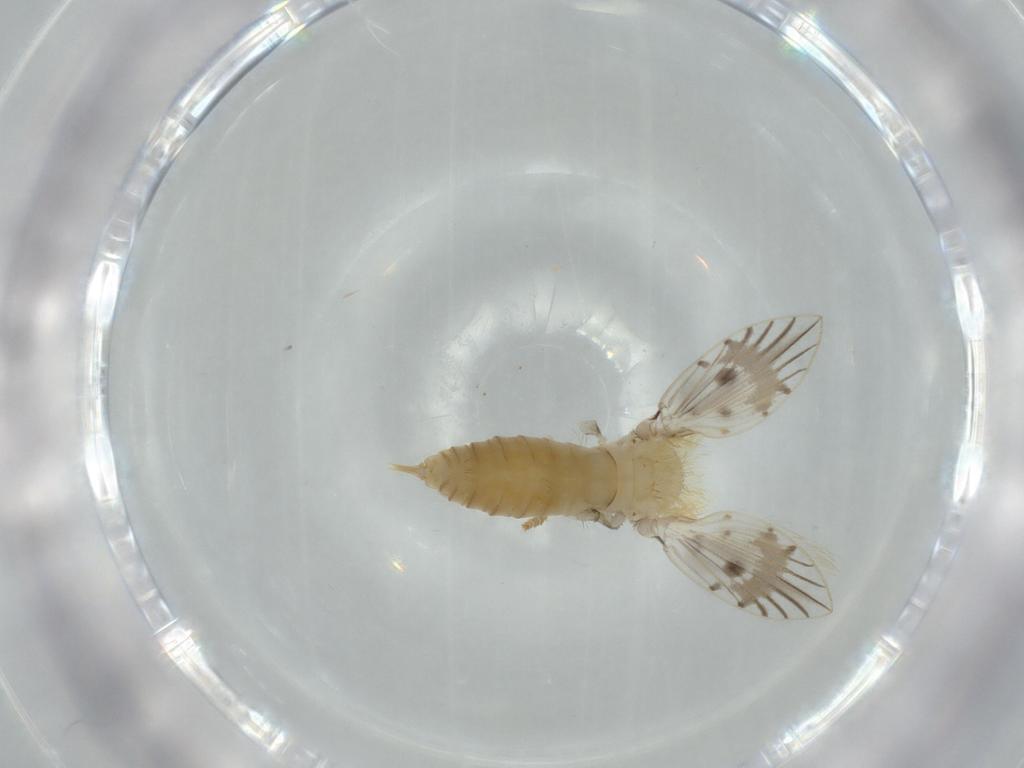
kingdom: Animalia
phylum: Arthropoda
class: Insecta
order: Diptera
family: Psychodidae
